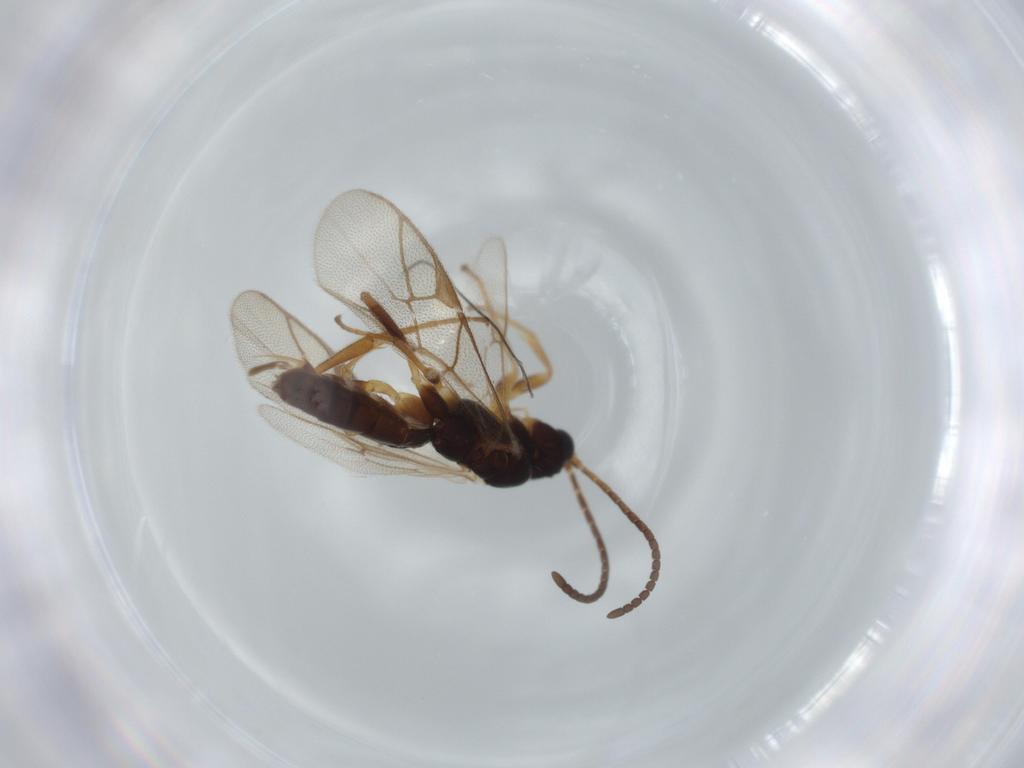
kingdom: Animalia
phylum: Arthropoda
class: Insecta
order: Hymenoptera
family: Ichneumonidae
